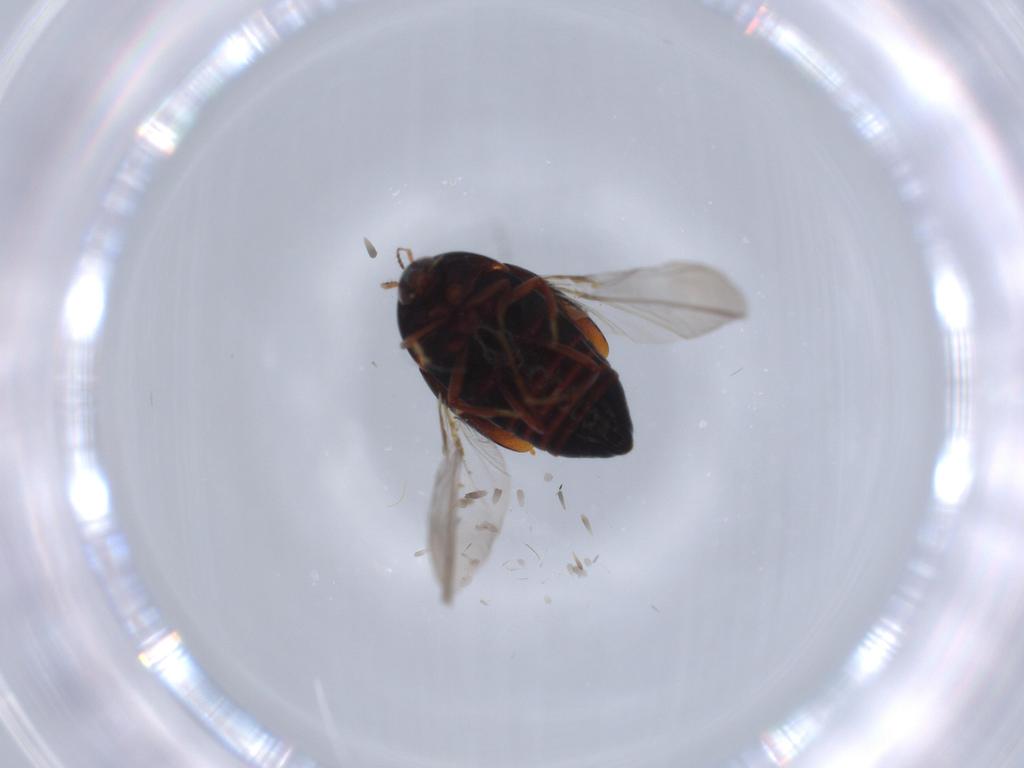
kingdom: Animalia
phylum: Arthropoda
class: Insecta
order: Coleoptera
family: Staphylinidae
